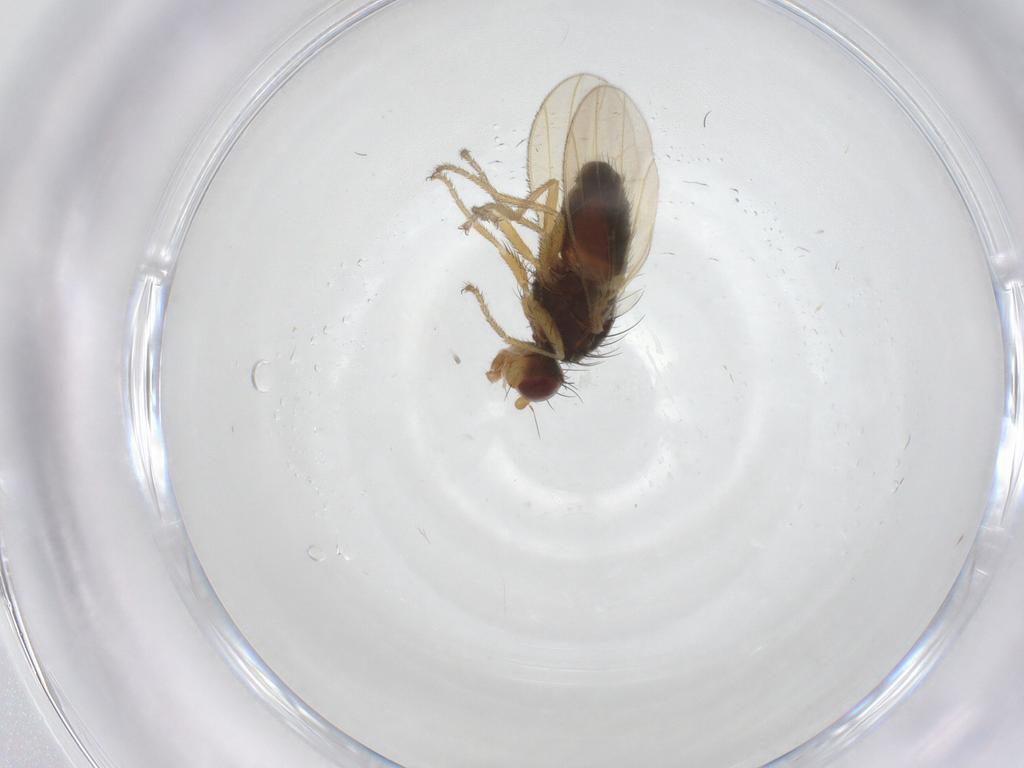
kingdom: Animalia
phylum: Arthropoda
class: Insecta
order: Diptera
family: Heleomyzidae
